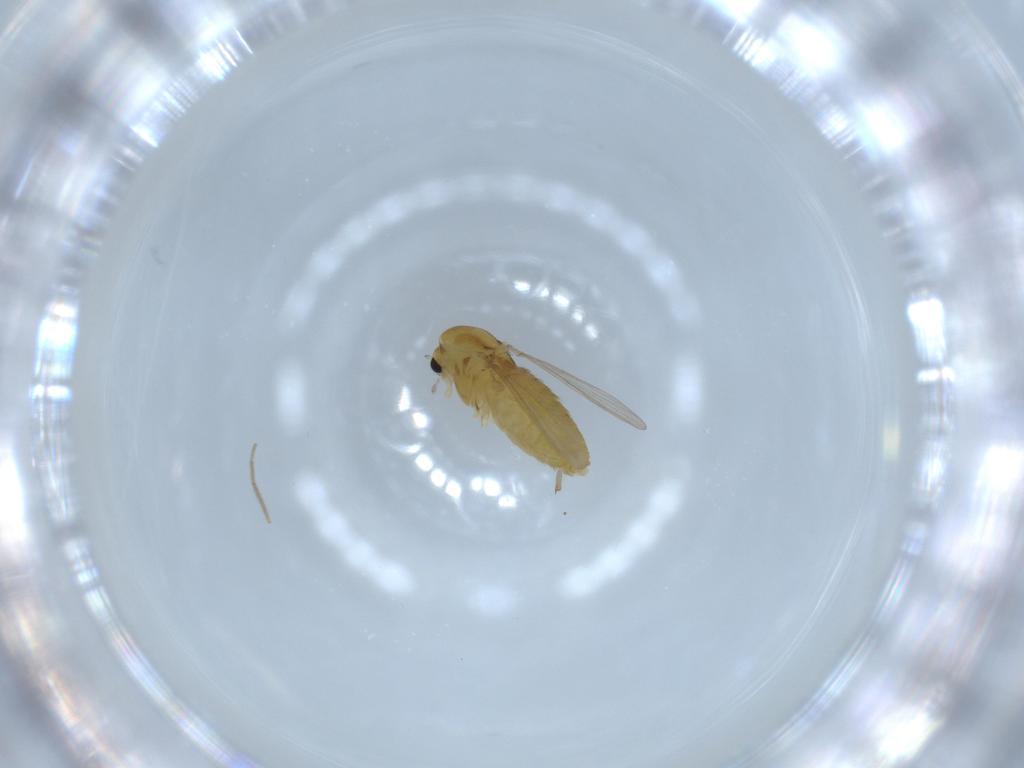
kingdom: Animalia
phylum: Arthropoda
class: Insecta
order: Diptera
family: Chironomidae
